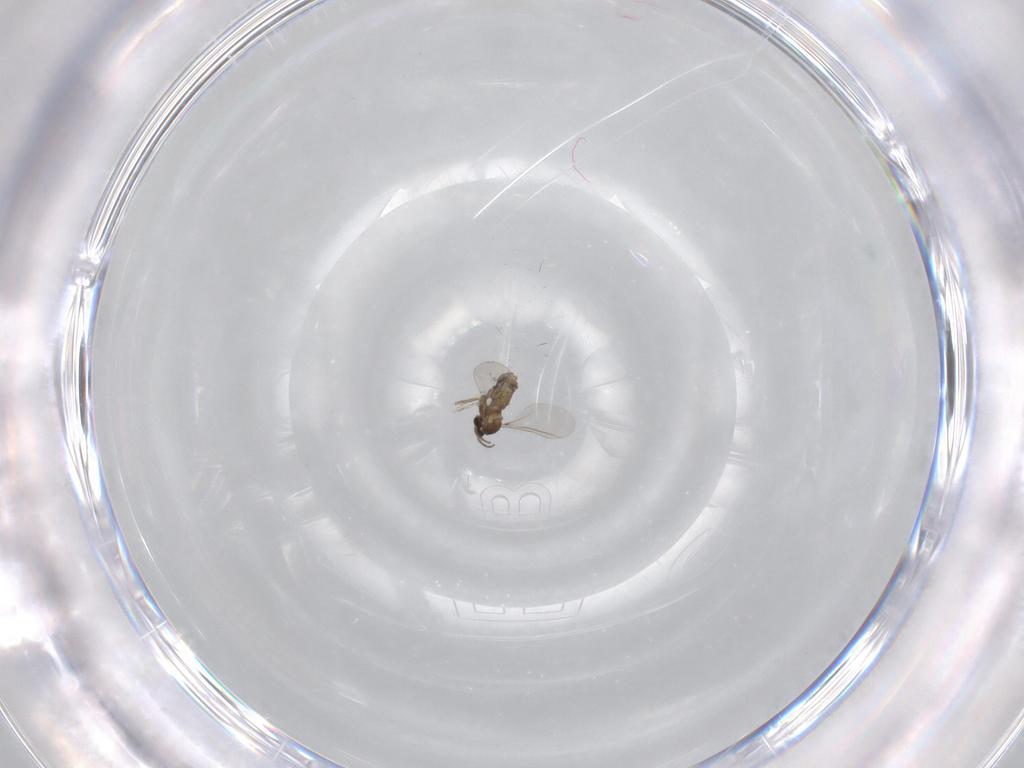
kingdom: Animalia
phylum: Arthropoda
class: Insecta
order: Diptera
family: Cecidomyiidae
